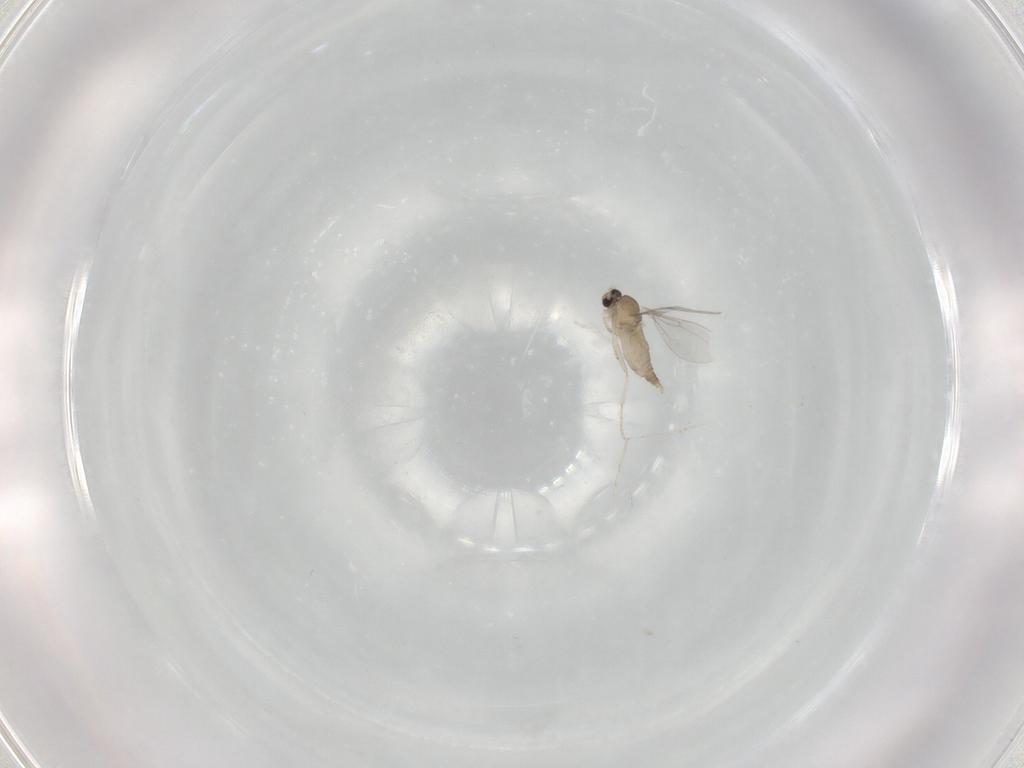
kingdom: Animalia
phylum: Arthropoda
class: Insecta
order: Diptera
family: Cecidomyiidae
